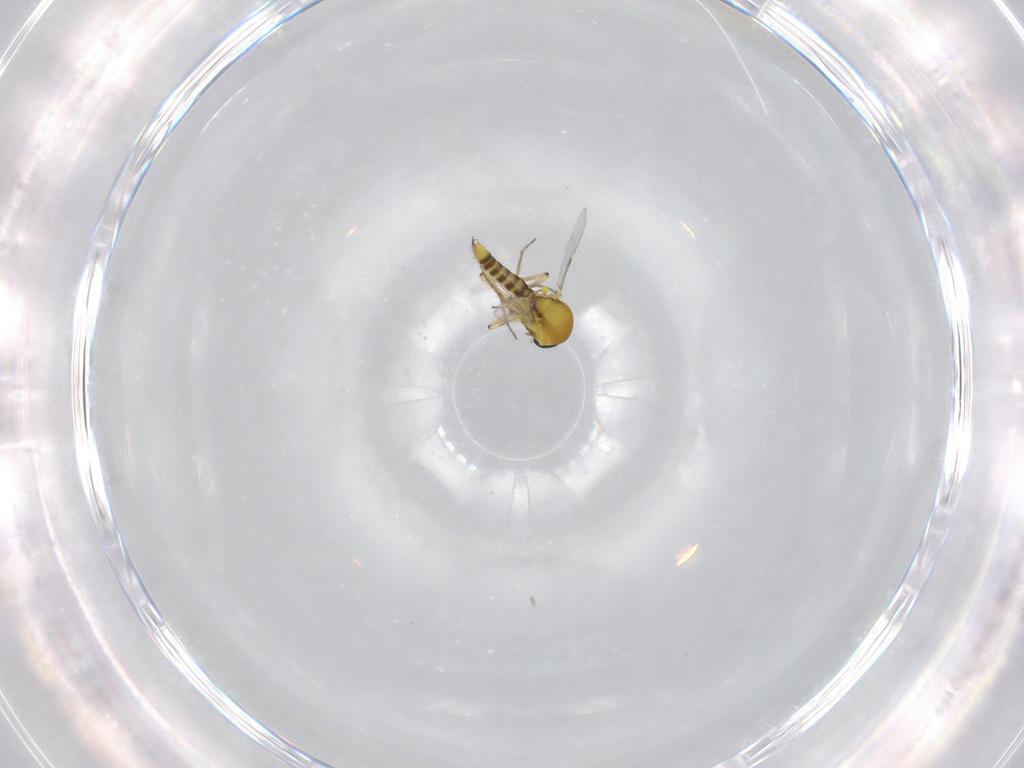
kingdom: Animalia
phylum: Arthropoda
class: Insecta
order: Diptera
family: Ceratopogonidae
